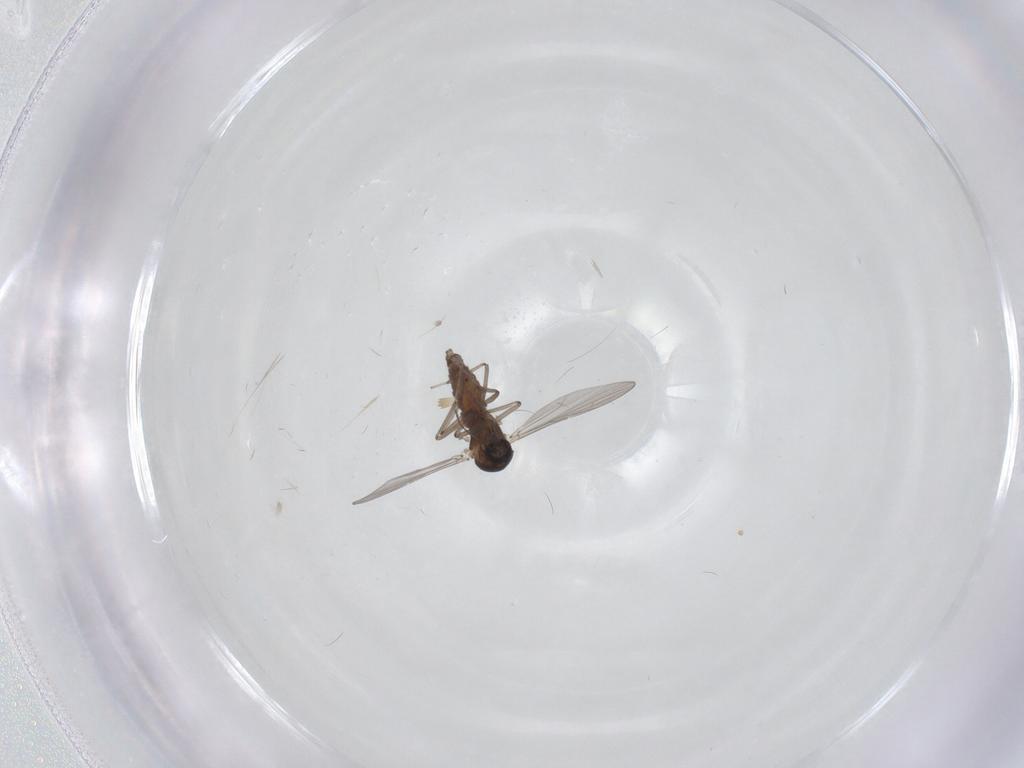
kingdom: Animalia
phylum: Arthropoda
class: Insecta
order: Diptera
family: Ceratopogonidae
